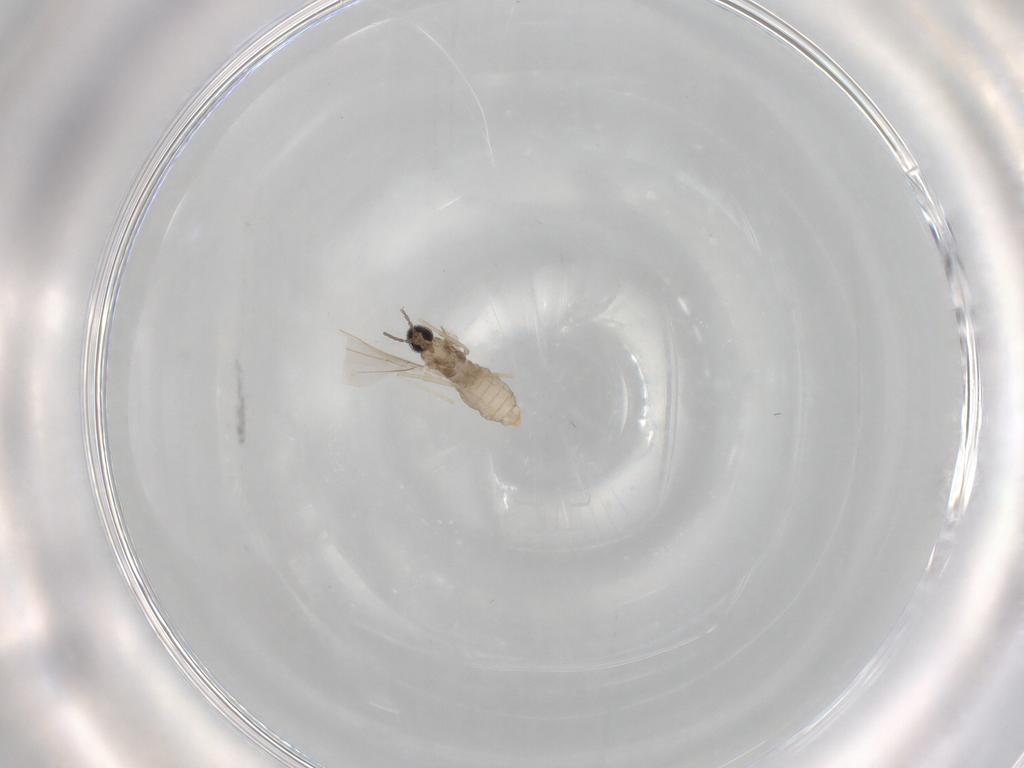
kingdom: Animalia
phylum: Arthropoda
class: Insecta
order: Diptera
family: Cecidomyiidae
